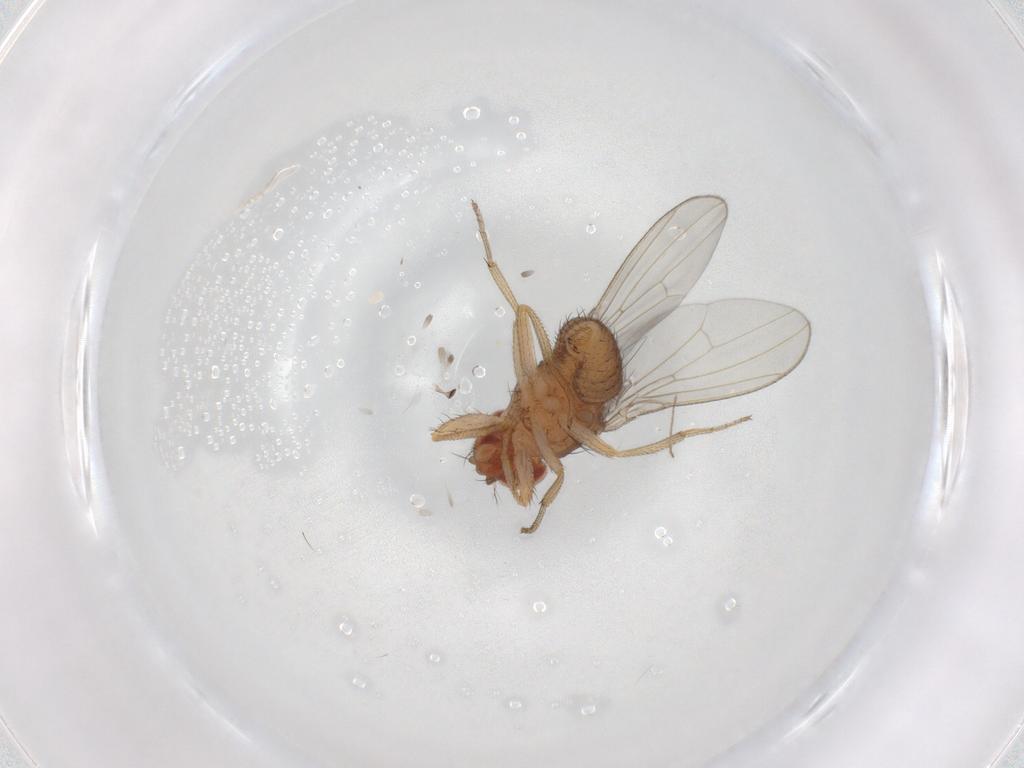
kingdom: Animalia
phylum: Arthropoda
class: Insecta
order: Diptera
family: Drosophilidae
